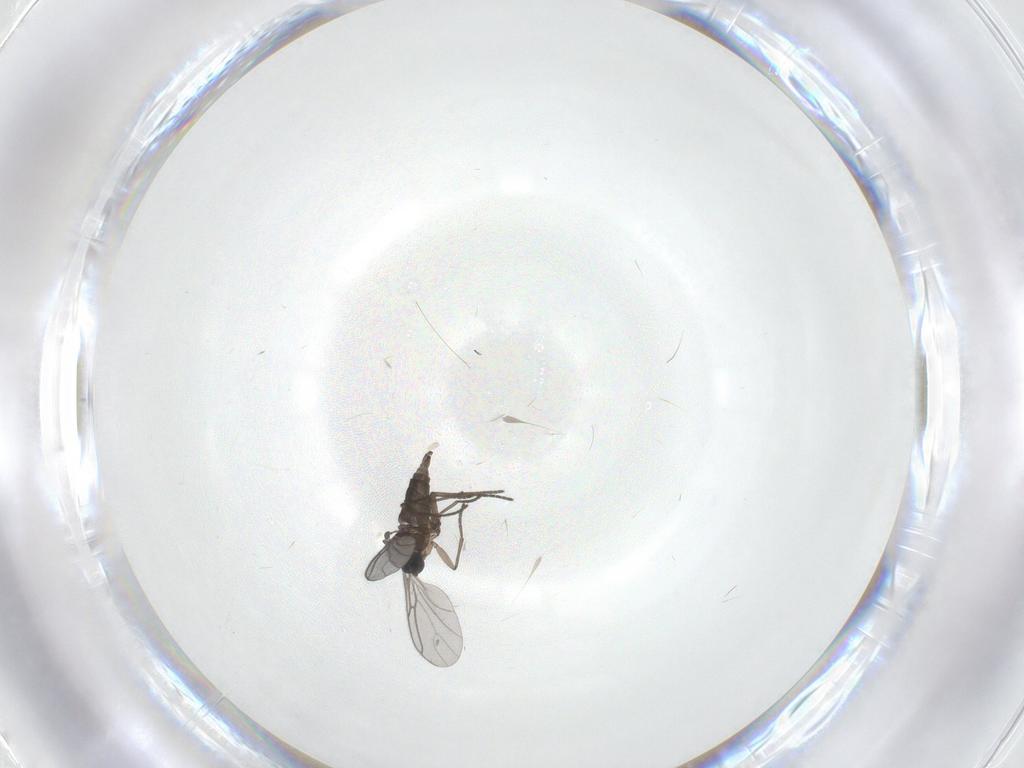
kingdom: Animalia
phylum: Arthropoda
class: Insecta
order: Diptera
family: Sciaridae
